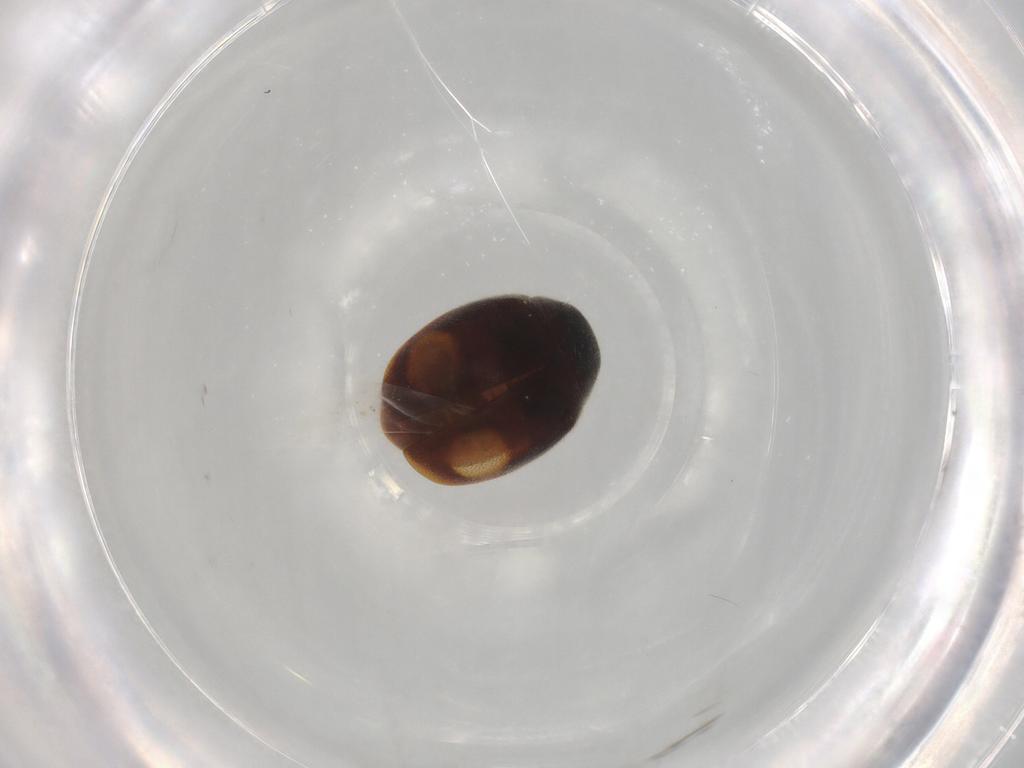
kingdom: Animalia
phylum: Arthropoda
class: Insecta
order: Coleoptera
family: Coccinellidae
